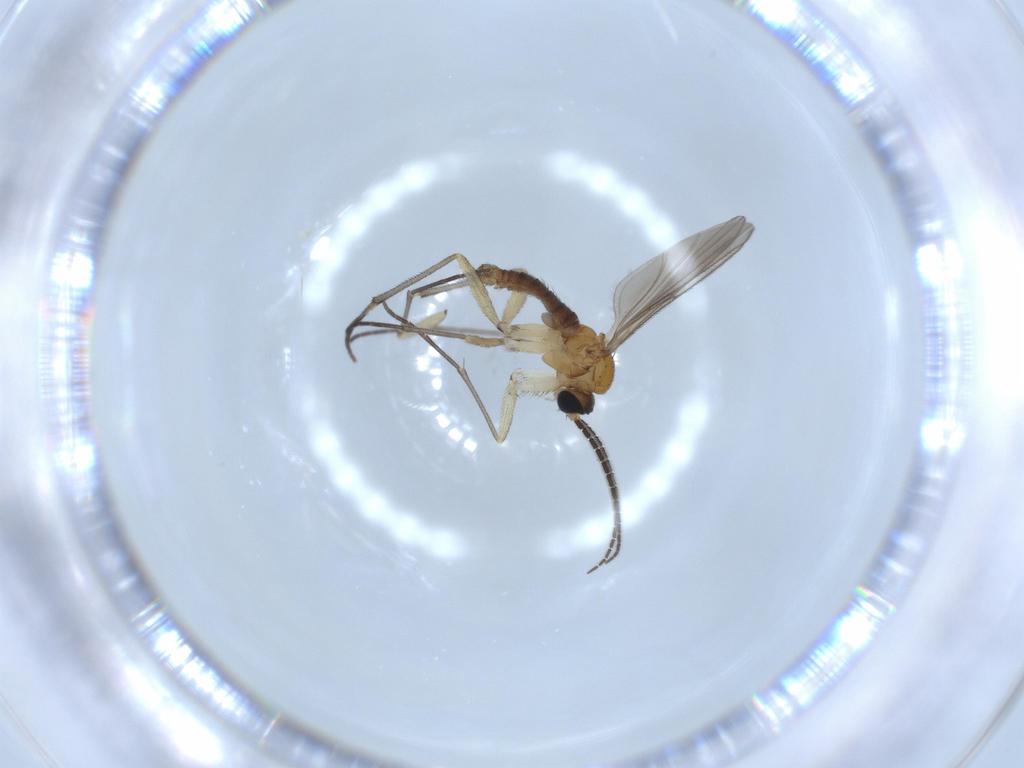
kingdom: Animalia
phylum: Arthropoda
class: Insecta
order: Diptera
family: Sciaridae
